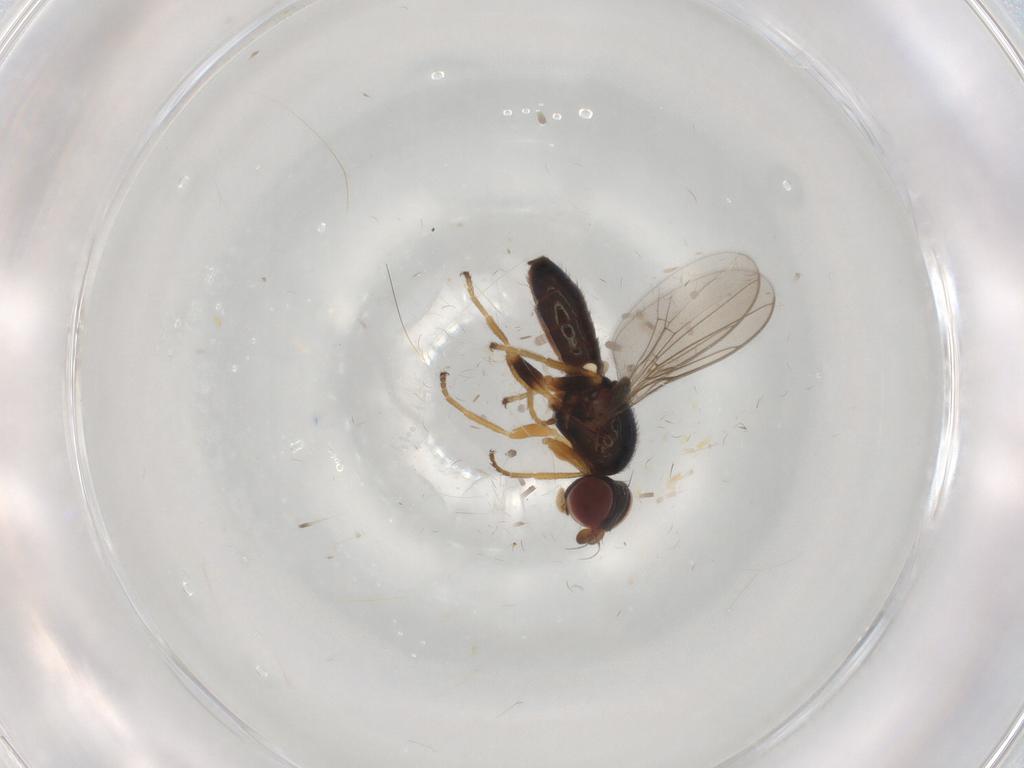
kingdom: Animalia
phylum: Arthropoda
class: Insecta
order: Diptera
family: Chloropidae
